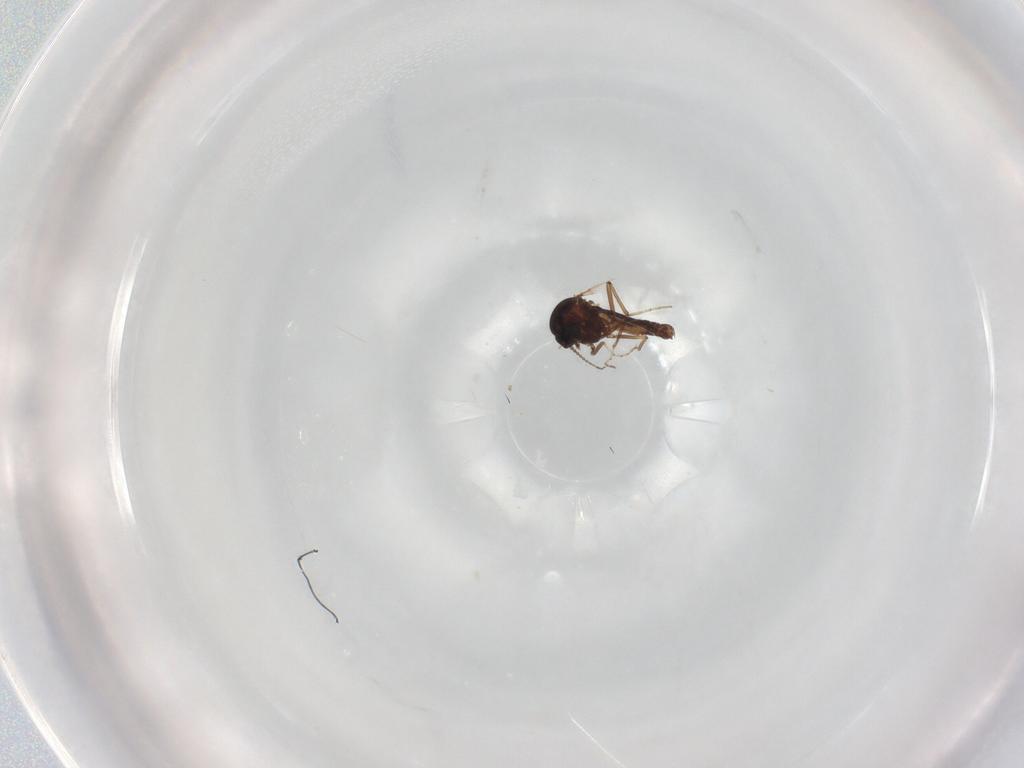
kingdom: Animalia
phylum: Arthropoda
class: Insecta
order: Diptera
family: Ceratopogonidae
